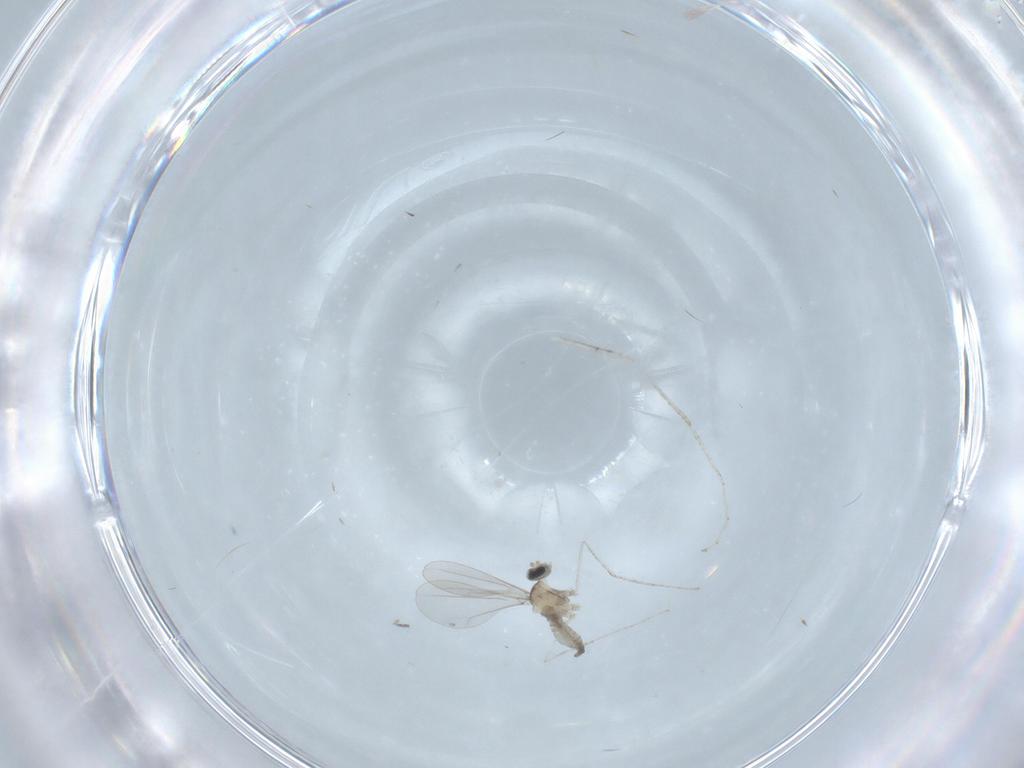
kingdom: Animalia
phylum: Arthropoda
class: Insecta
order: Diptera
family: Cecidomyiidae
